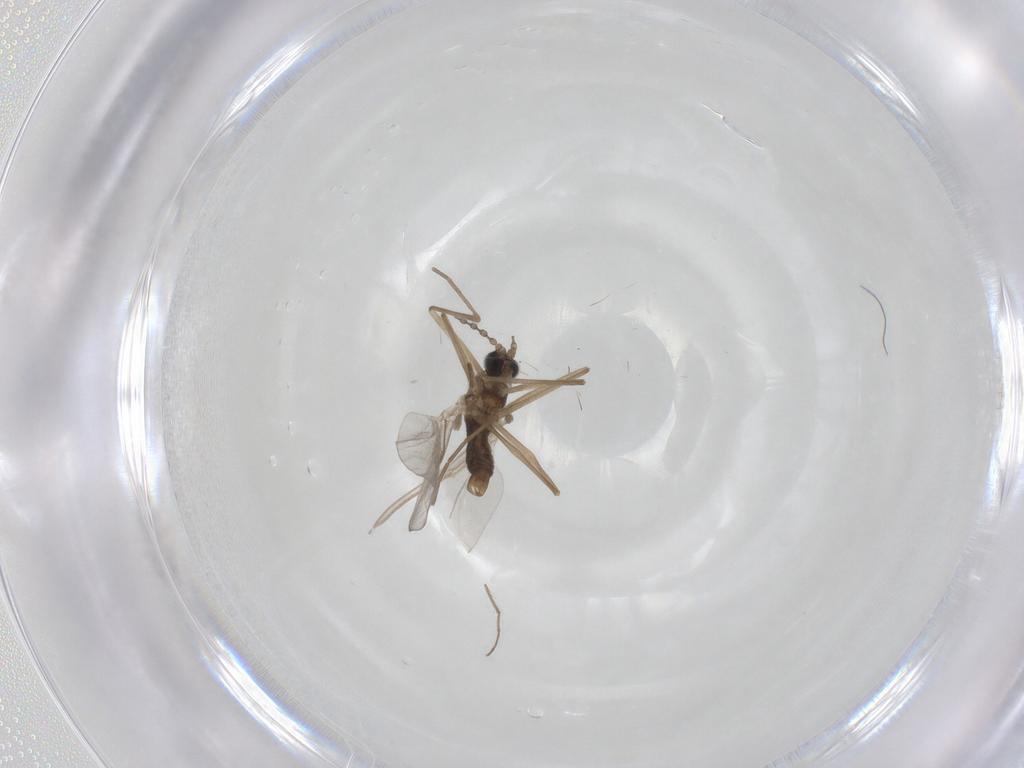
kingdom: Animalia
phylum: Arthropoda
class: Insecta
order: Diptera
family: Cecidomyiidae
